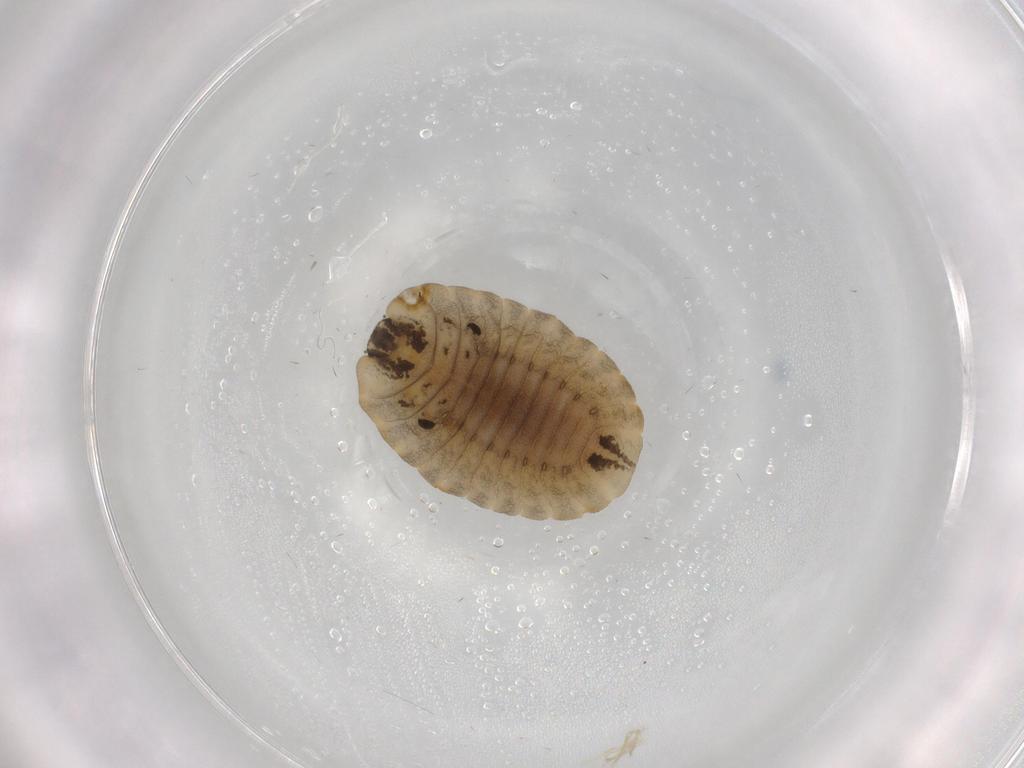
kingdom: Animalia
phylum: Arthropoda
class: Insecta
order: Coleoptera
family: Coccinellidae
